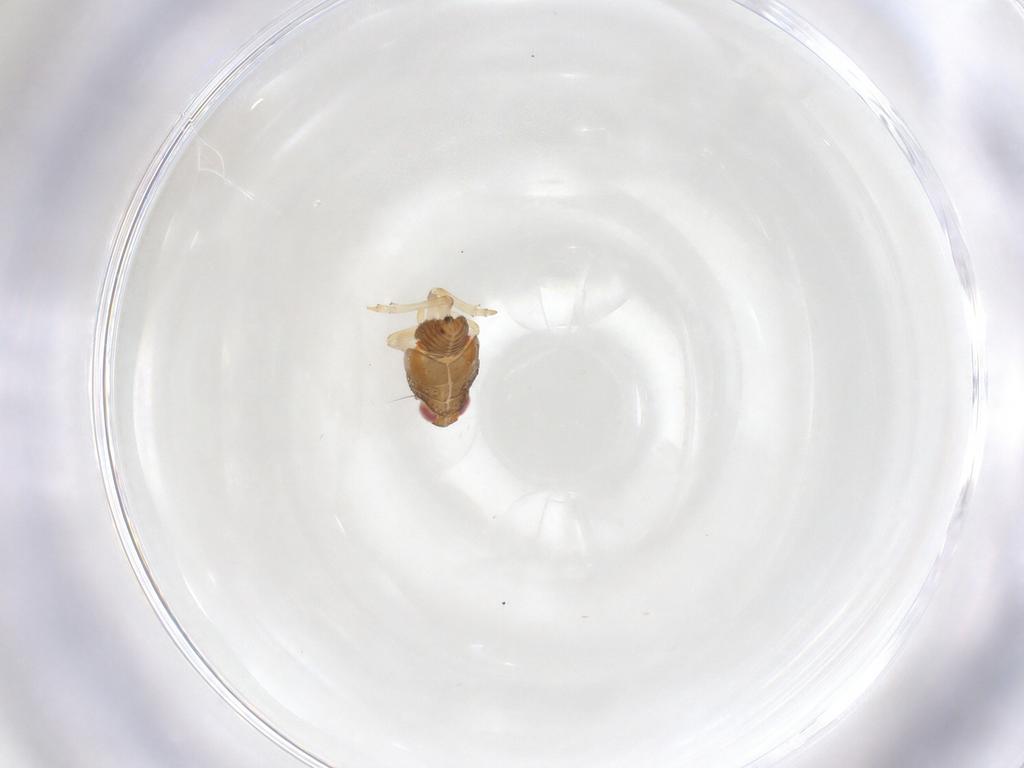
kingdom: Animalia
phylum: Arthropoda
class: Insecta
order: Hemiptera
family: Issidae
